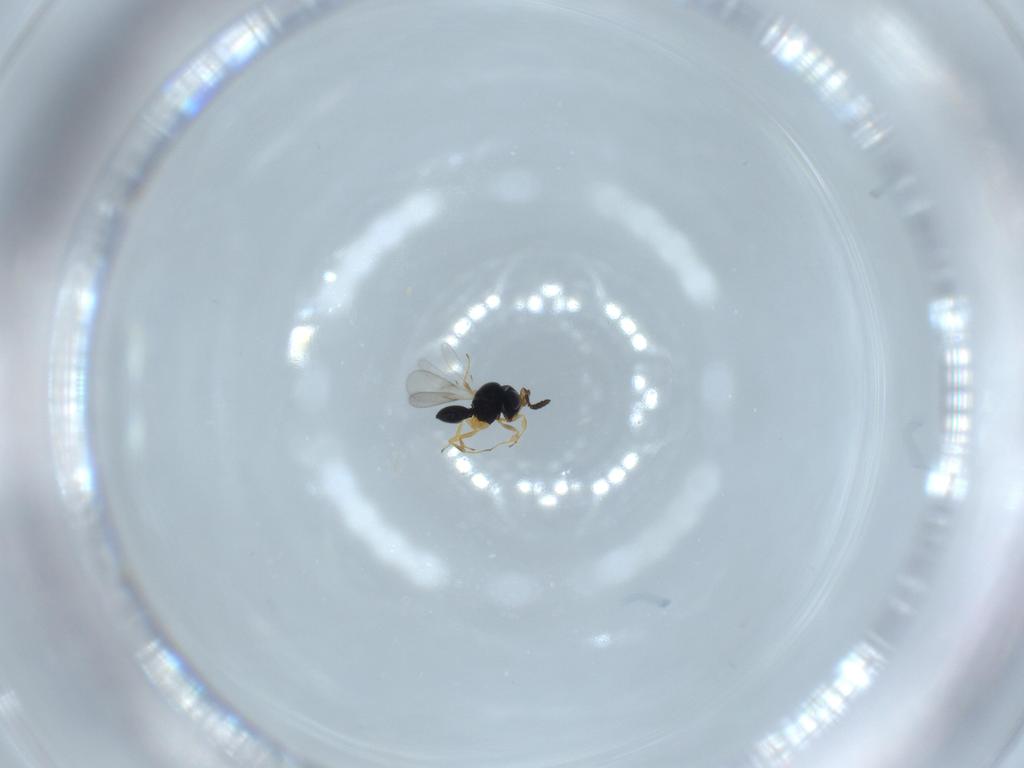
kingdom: Animalia
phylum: Arthropoda
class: Insecta
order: Hymenoptera
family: Scelionidae
